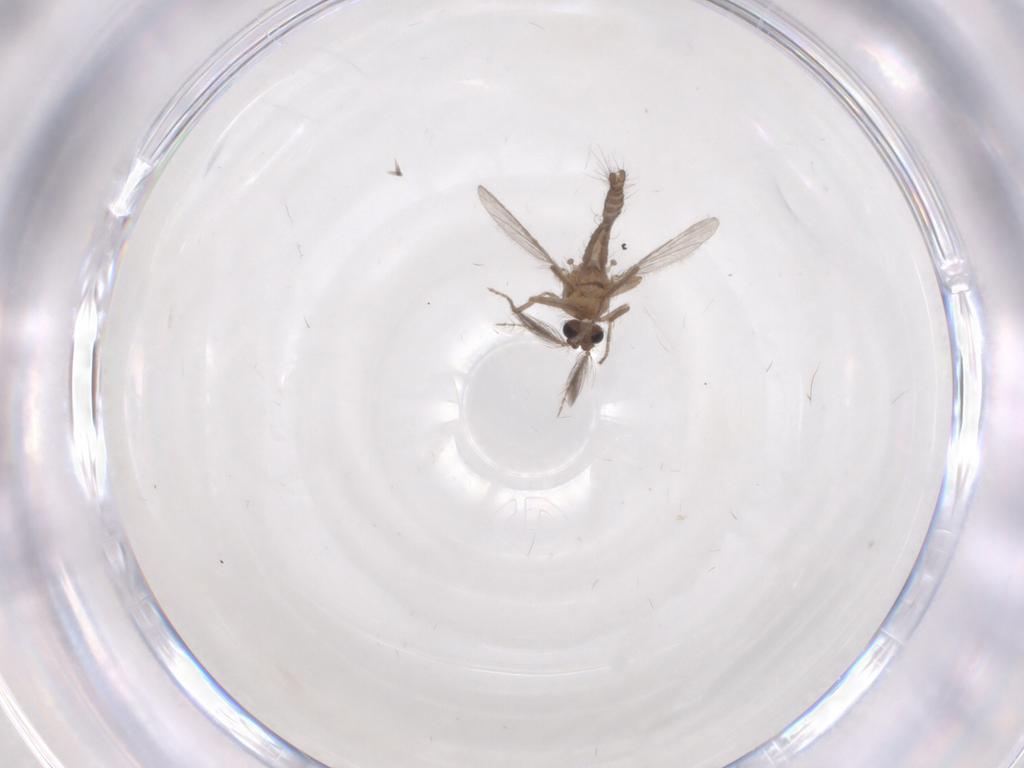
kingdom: Animalia
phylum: Arthropoda
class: Insecta
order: Diptera
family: Ceratopogonidae
